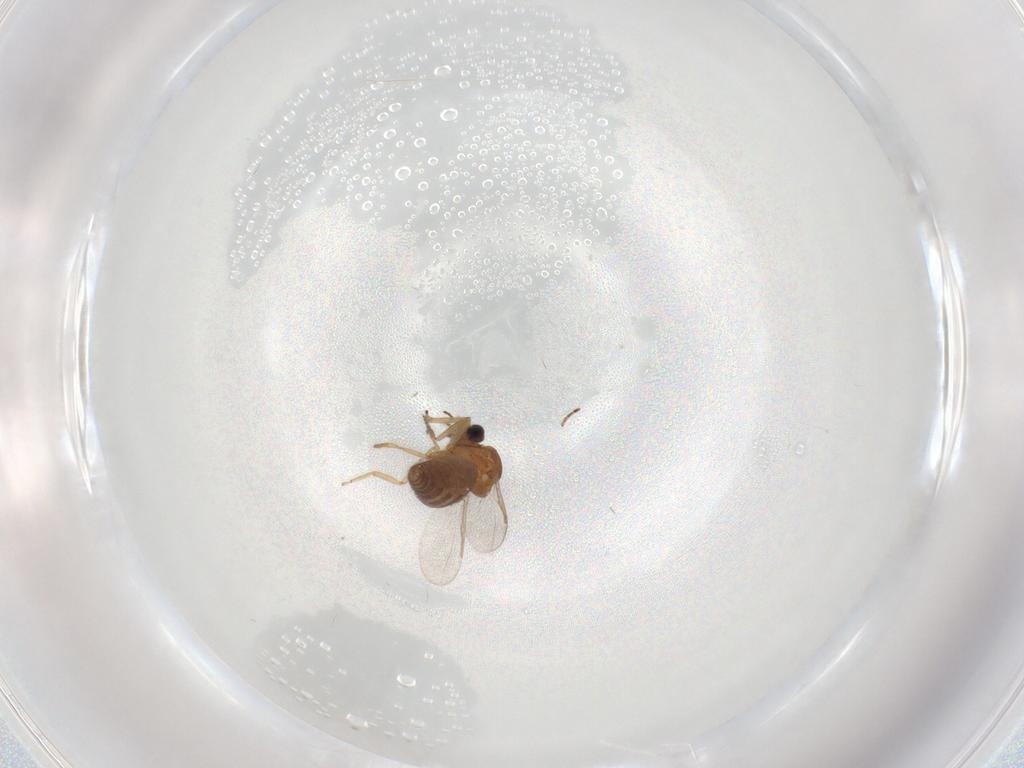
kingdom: Animalia
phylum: Arthropoda
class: Insecta
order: Diptera
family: Ceratopogonidae
